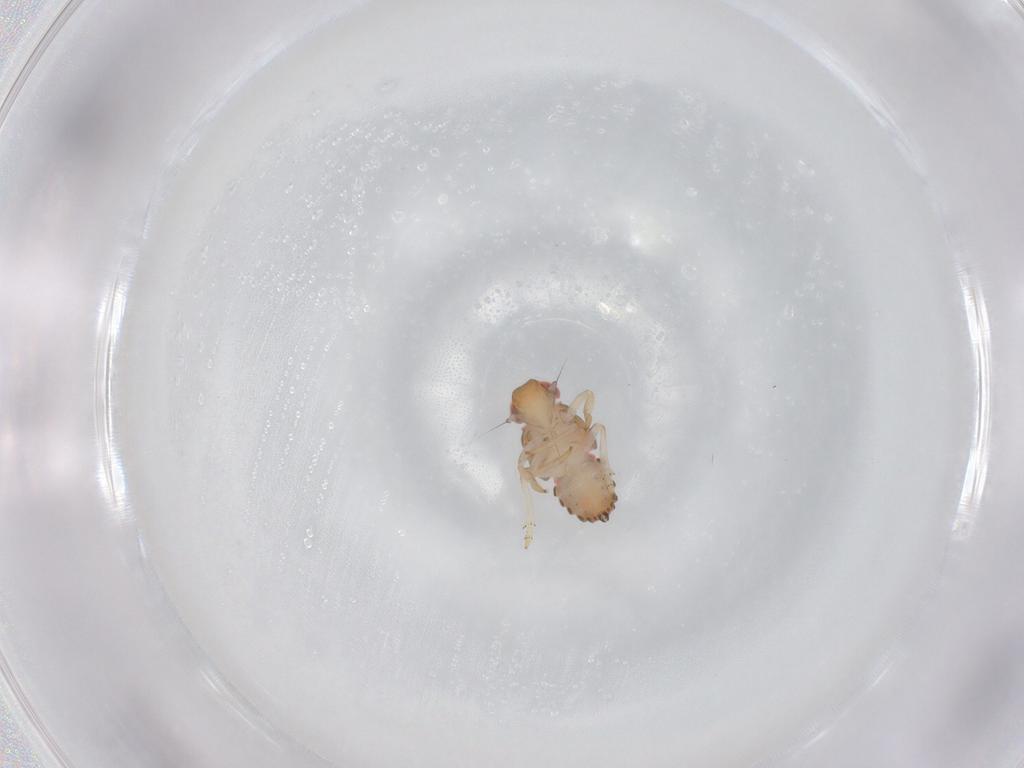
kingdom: Animalia
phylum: Arthropoda
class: Insecta
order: Hemiptera
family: Issidae
